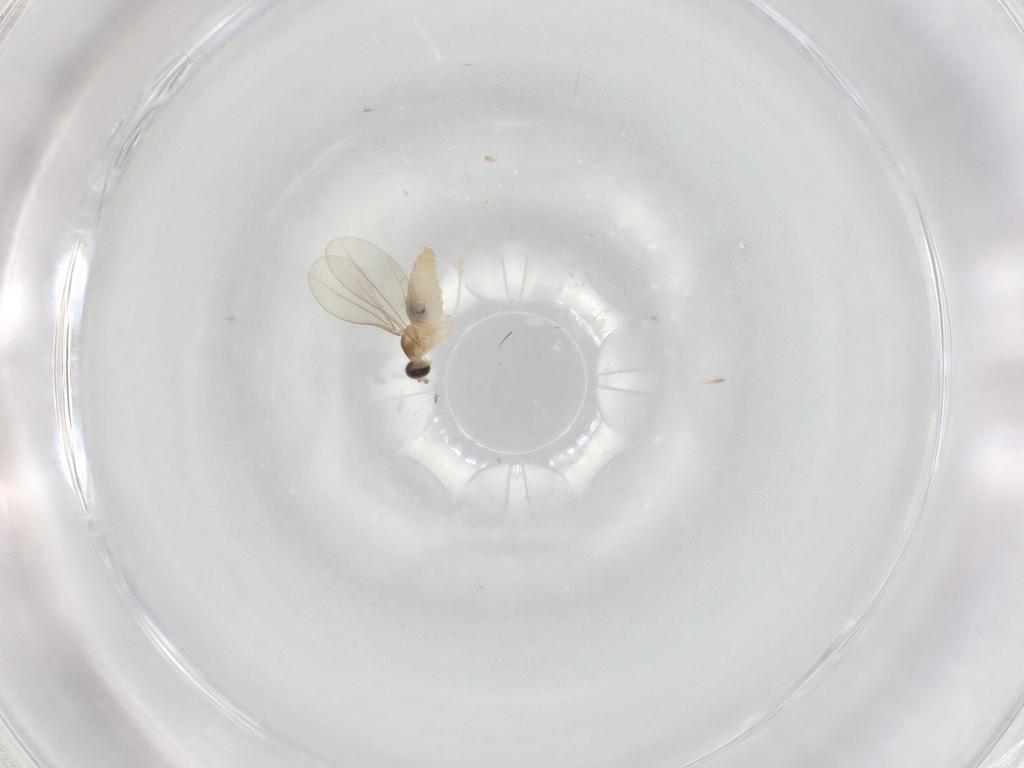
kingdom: Animalia
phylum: Arthropoda
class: Insecta
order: Diptera
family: Cecidomyiidae
